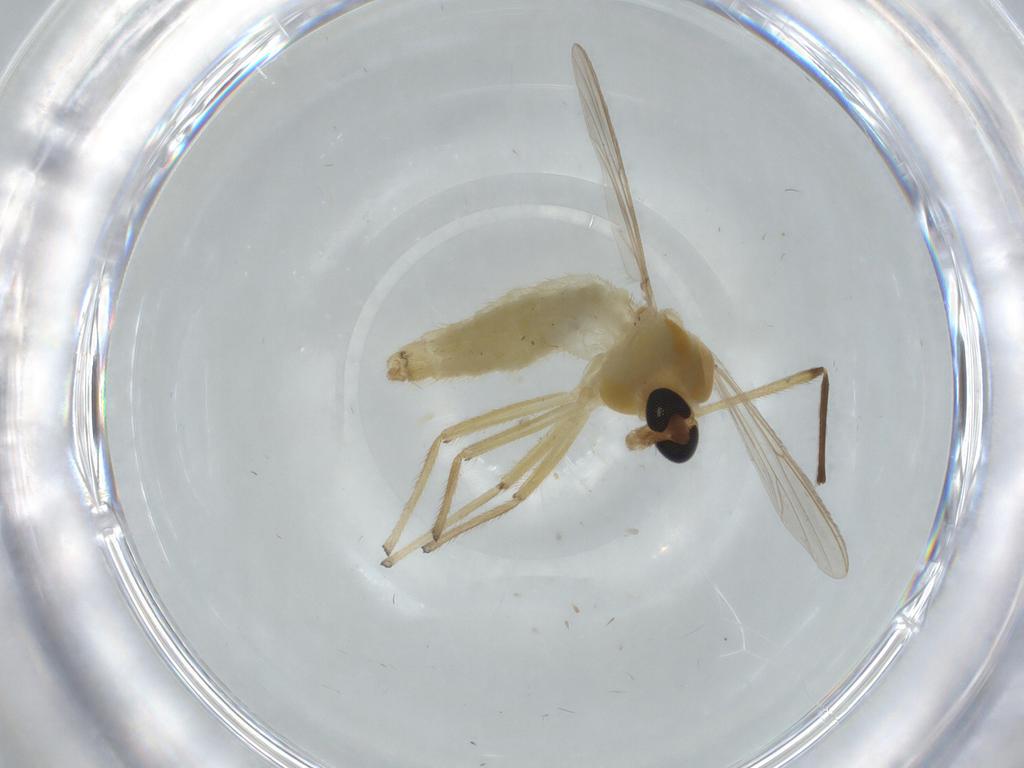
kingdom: Animalia
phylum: Arthropoda
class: Insecta
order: Diptera
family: Chironomidae
